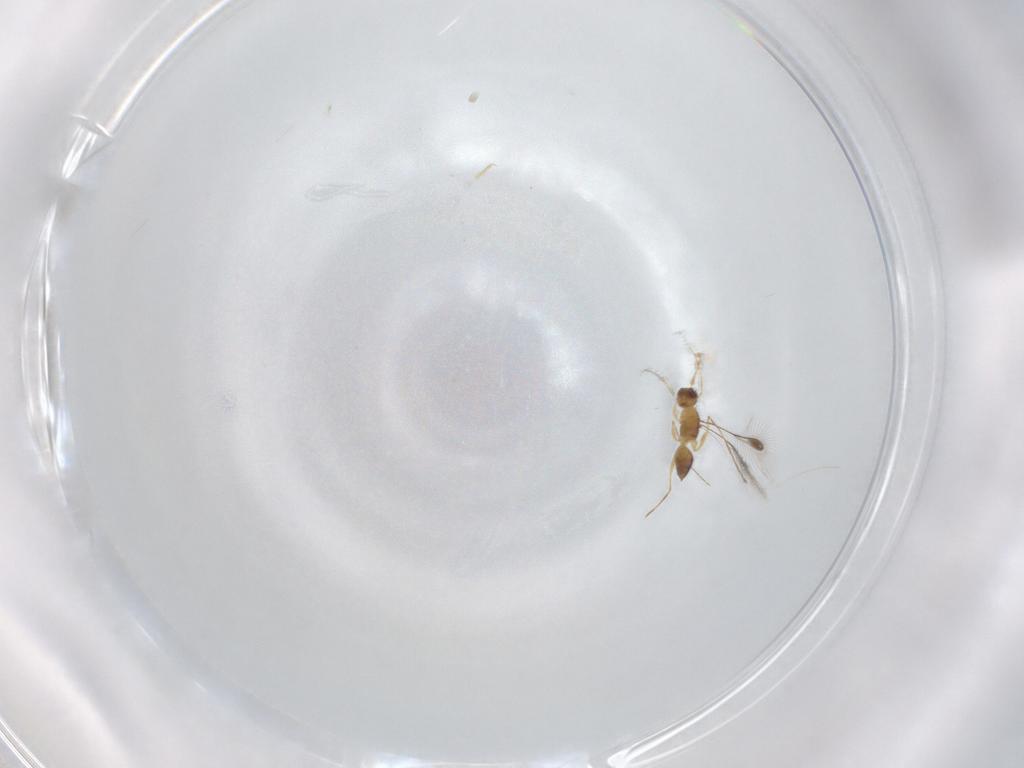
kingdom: Animalia
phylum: Arthropoda
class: Insecta
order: Hymenoptera
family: Mymaridae
